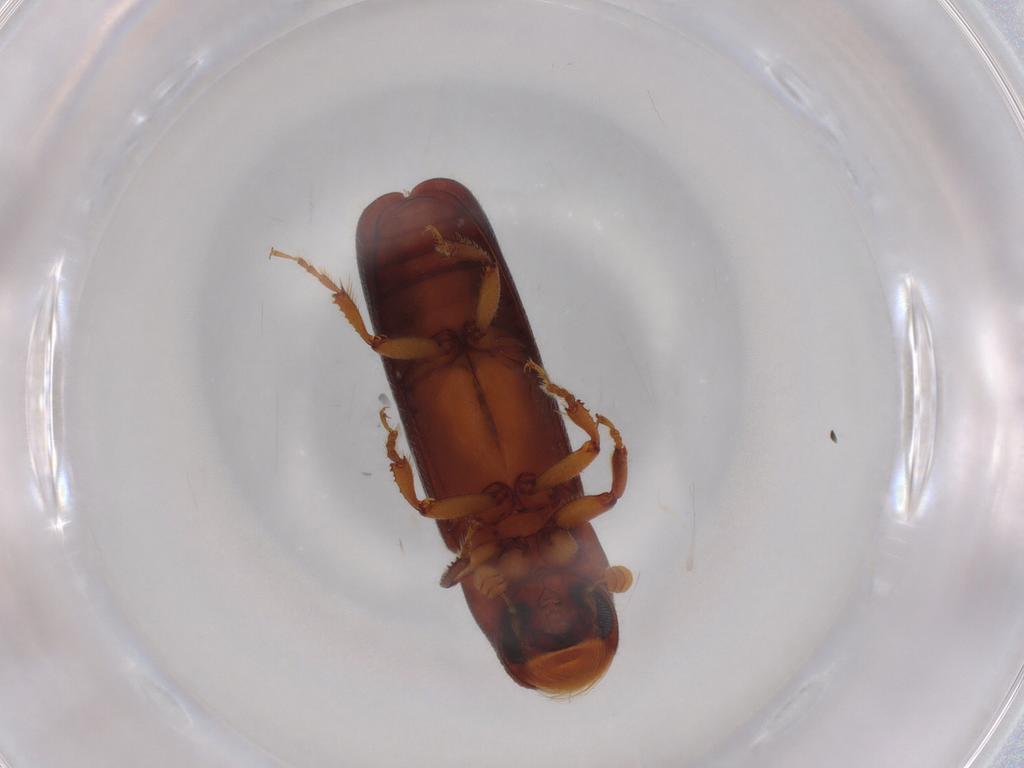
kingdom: Animalia
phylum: Arthropoda
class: Insecta
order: Coleoptera
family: Curculionidae
